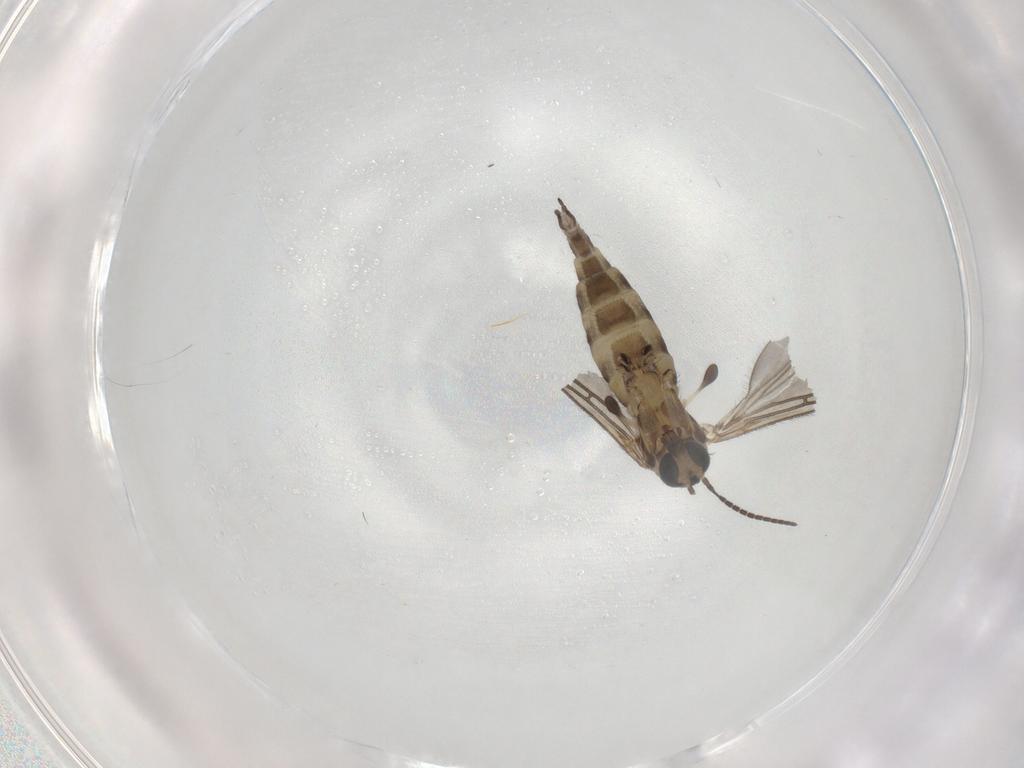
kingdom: Animalia
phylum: Arthropoda
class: Insecta
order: Diptera
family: Sciaridae
